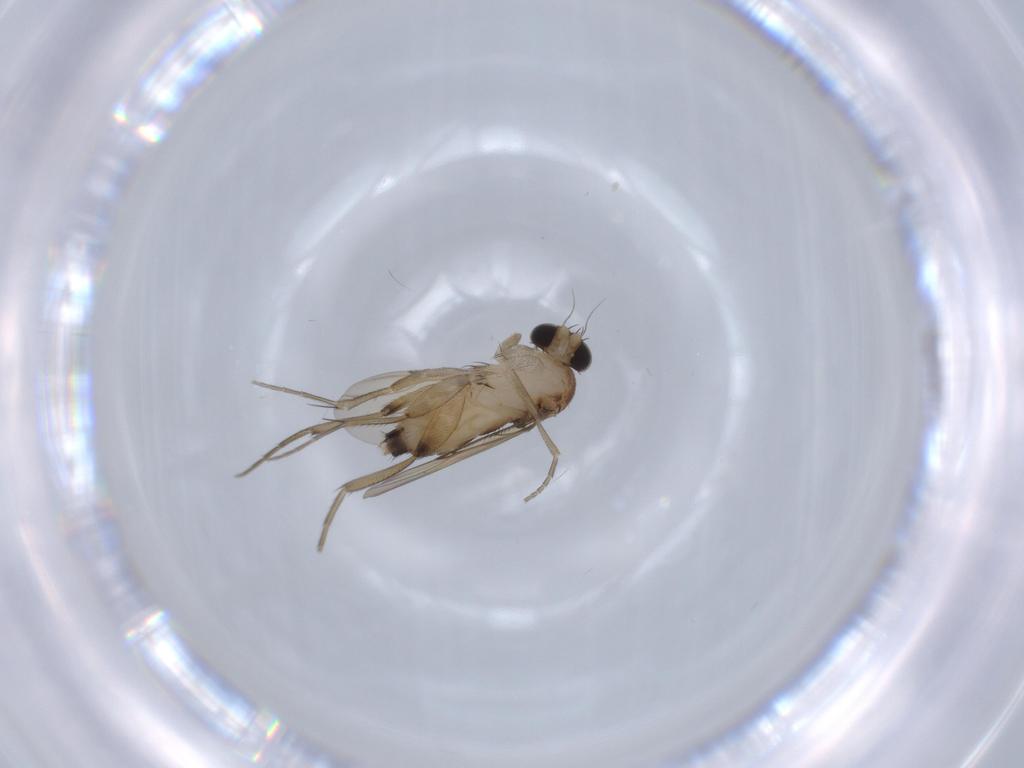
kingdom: Animalia
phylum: Arthropoda
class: Insecta
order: Diptera
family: Phoridae
